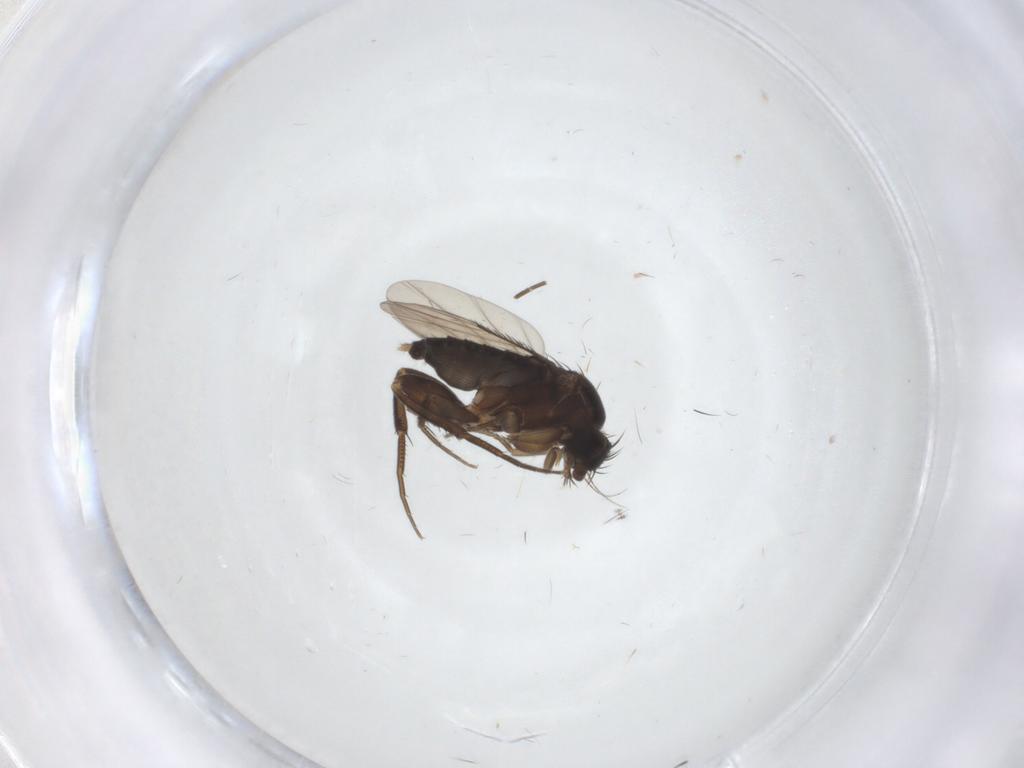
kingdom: Animalia
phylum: Arthropoda
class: Insecta
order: Diptera
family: Phoridae
